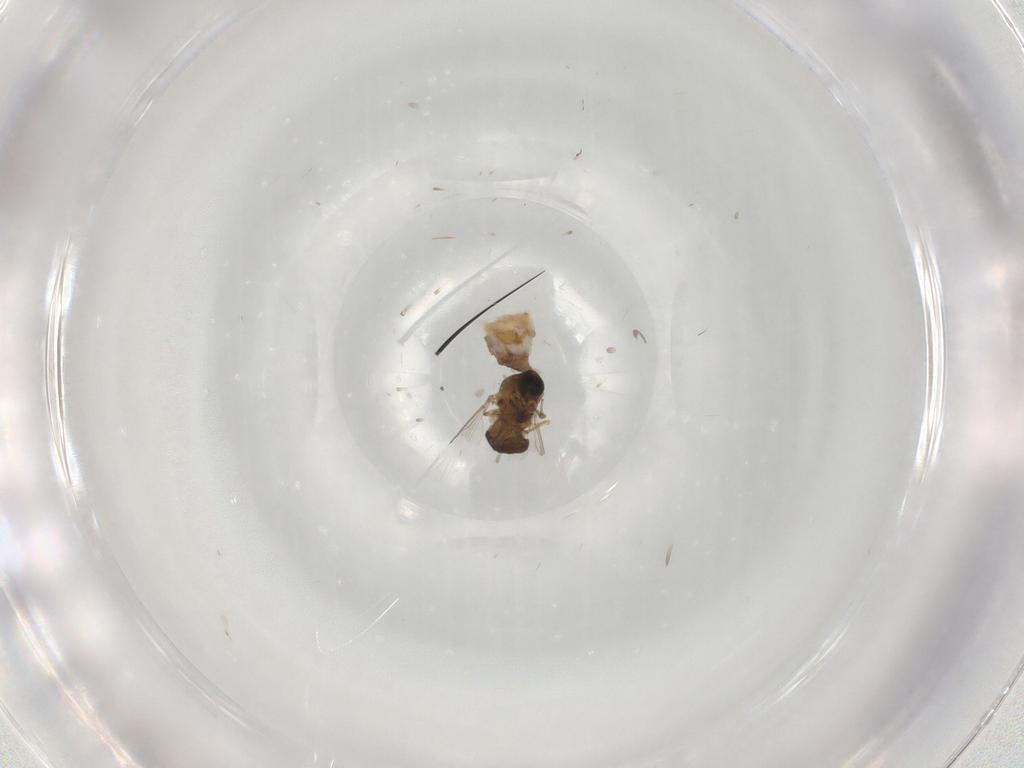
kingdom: Animalia
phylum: Arthropoda
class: Insecta
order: Diptera
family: Ceratopogonidae
